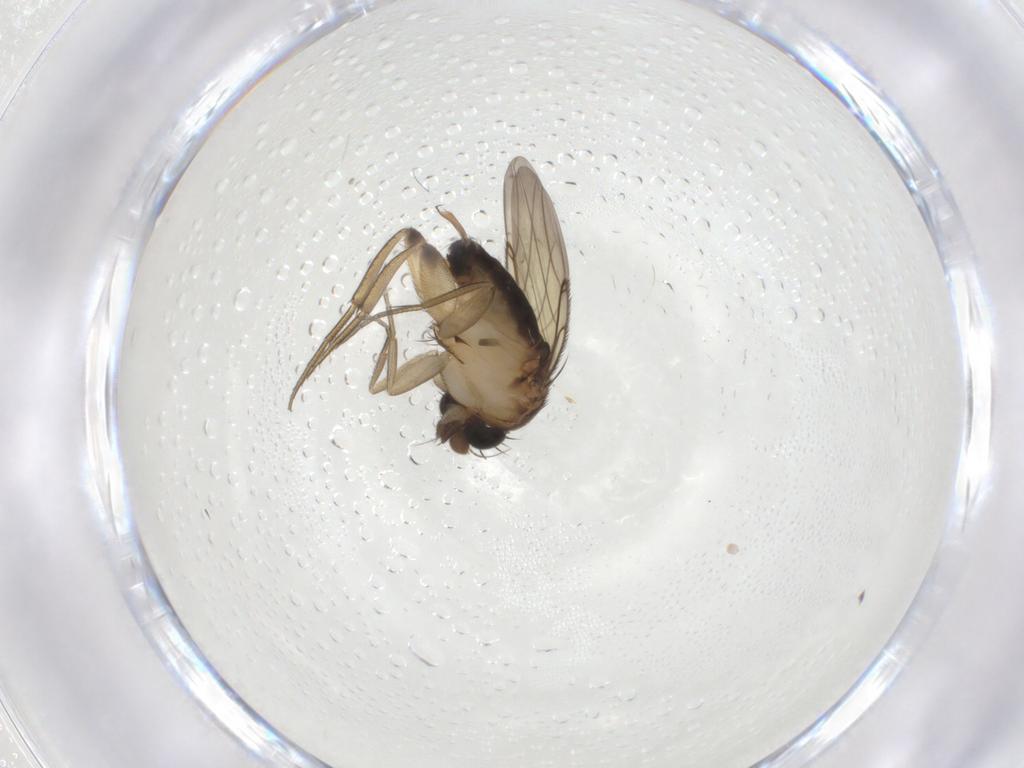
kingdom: Animalia
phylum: Arthropoda
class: Insecta
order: Diptera
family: Phoridae
